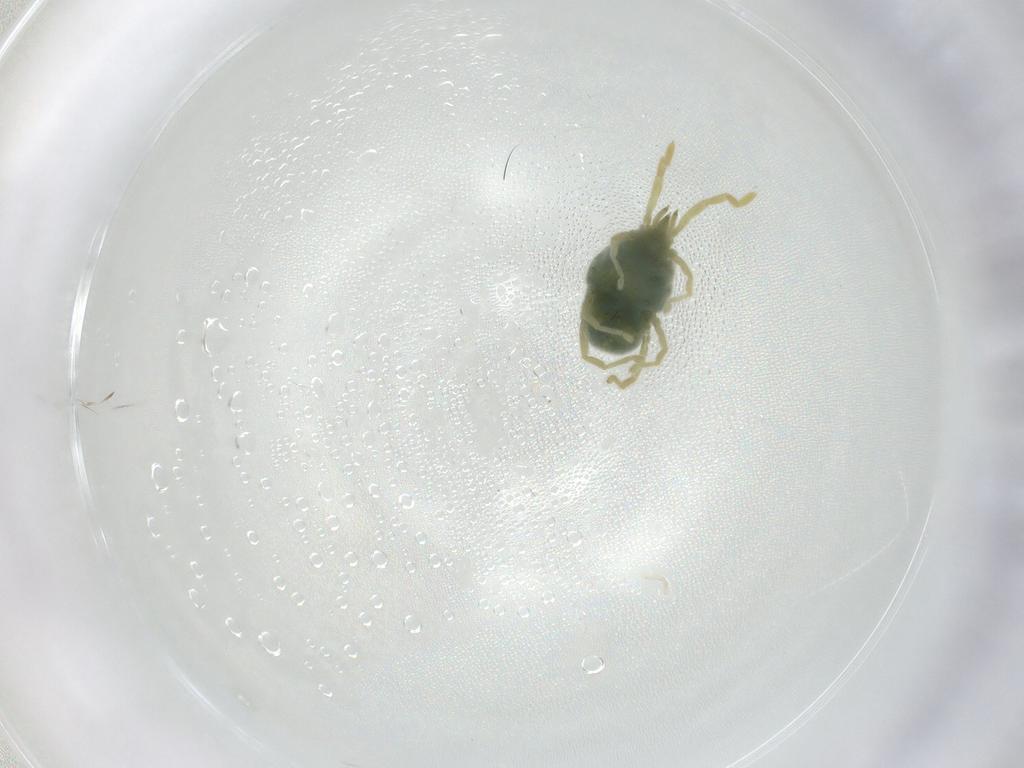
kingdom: Animalia
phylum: Arthropoda
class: Arachnida
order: Trombidiformes
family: Erythraeidae
